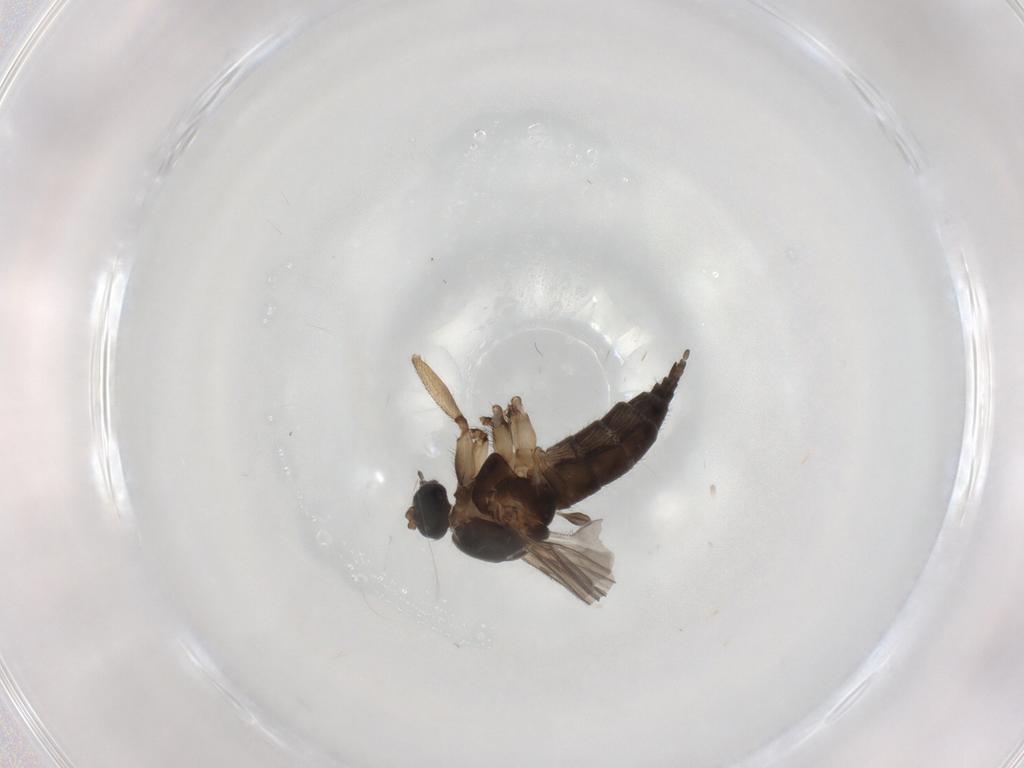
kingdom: Animalia
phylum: Arthropoda
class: Insecta
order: Diptera
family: Sciaridae
